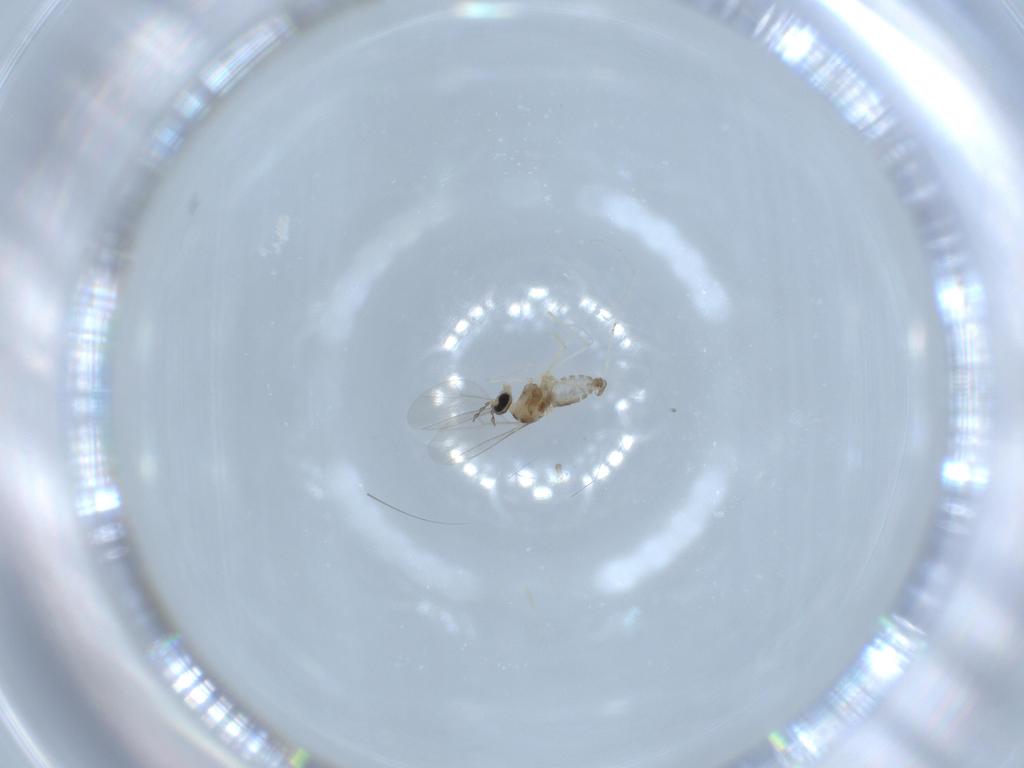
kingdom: Animalia
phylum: Arthropoda
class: Insecta
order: Diptera
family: Cecidomyiidae
